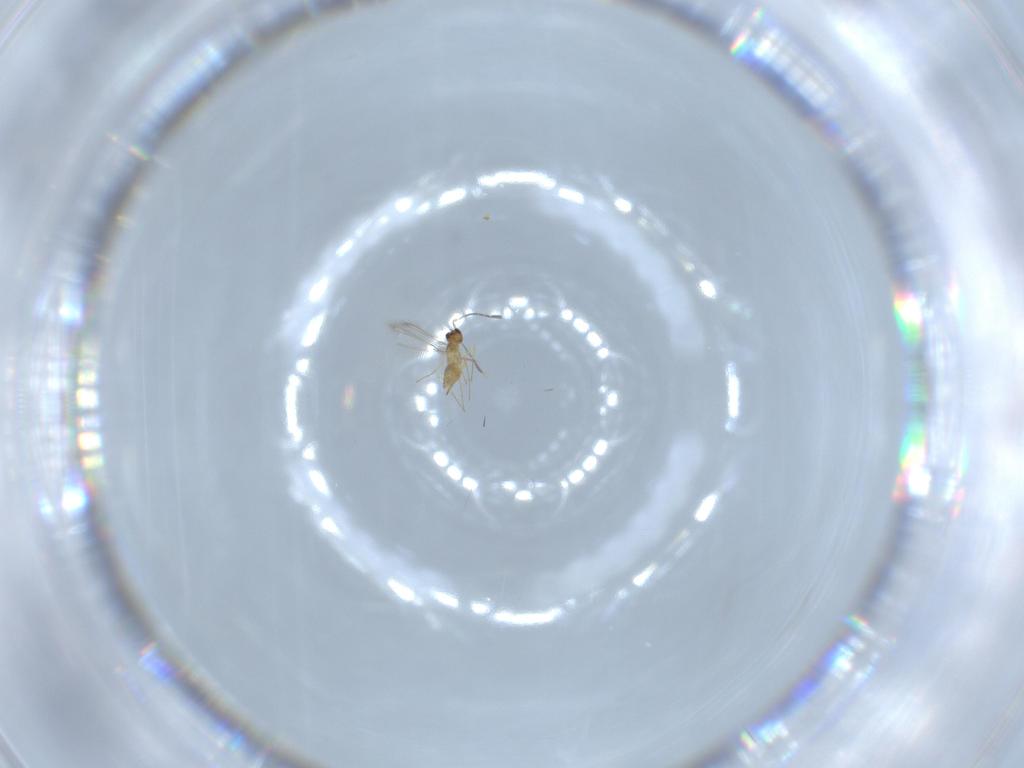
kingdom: Animalia
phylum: Arthropoda
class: Insecta
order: Hymenoptera
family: Mymaridae
